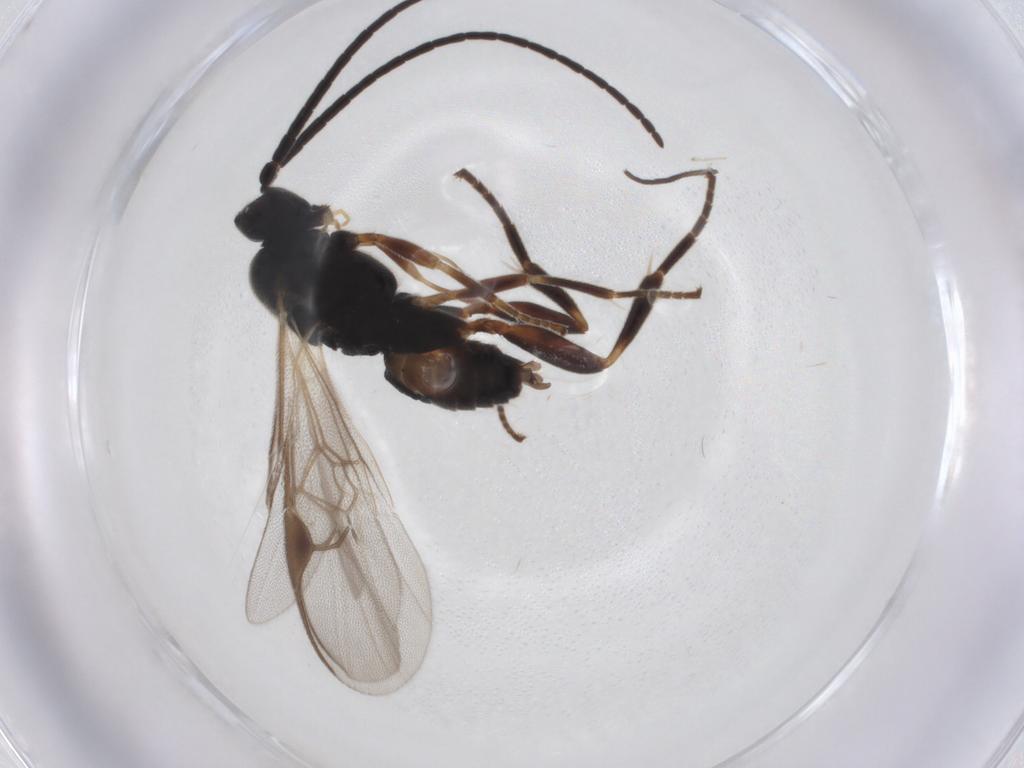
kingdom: Animalia
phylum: Arthropoda
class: Insecta
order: Hymenoptera
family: Braconidae
